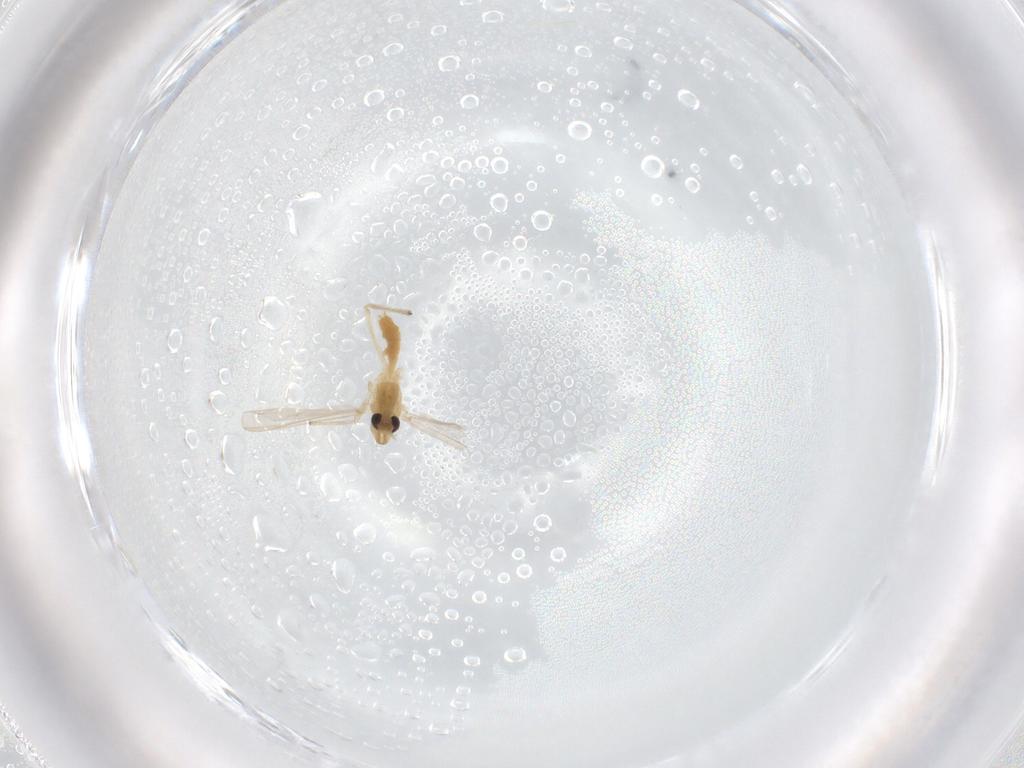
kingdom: Animalia
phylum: Arthropoda
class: Insecta
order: Diptera
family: Chironomidae
